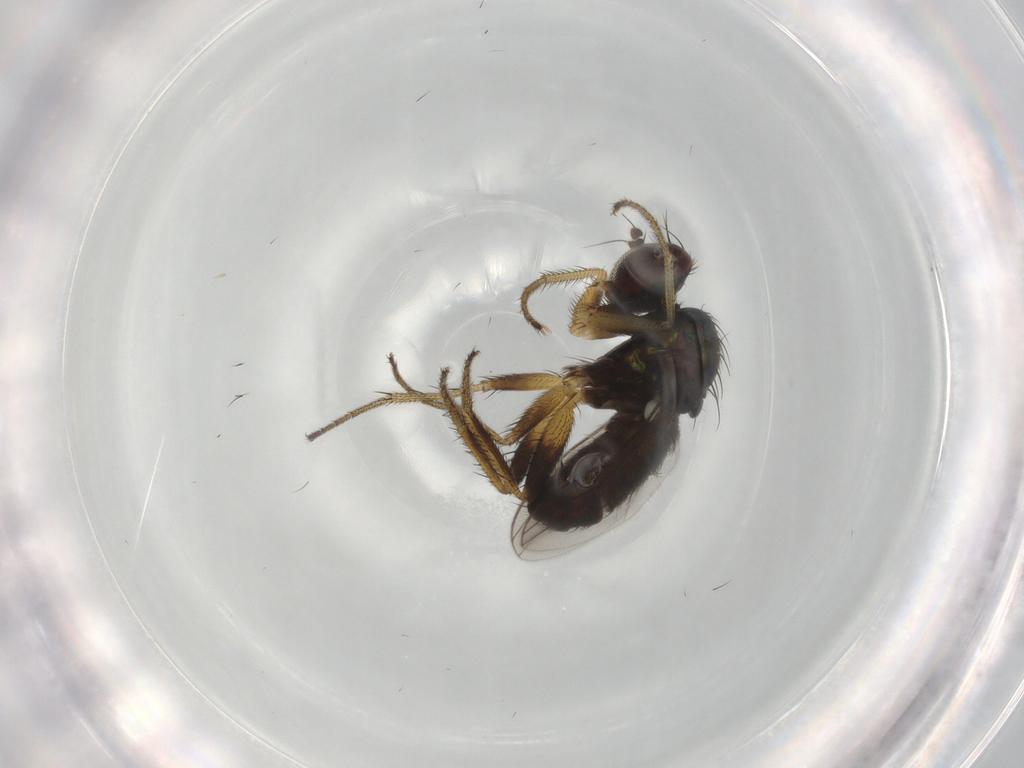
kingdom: Animalia
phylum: Arthropoda
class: Insecta
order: Diptera
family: Dolichopodidae
